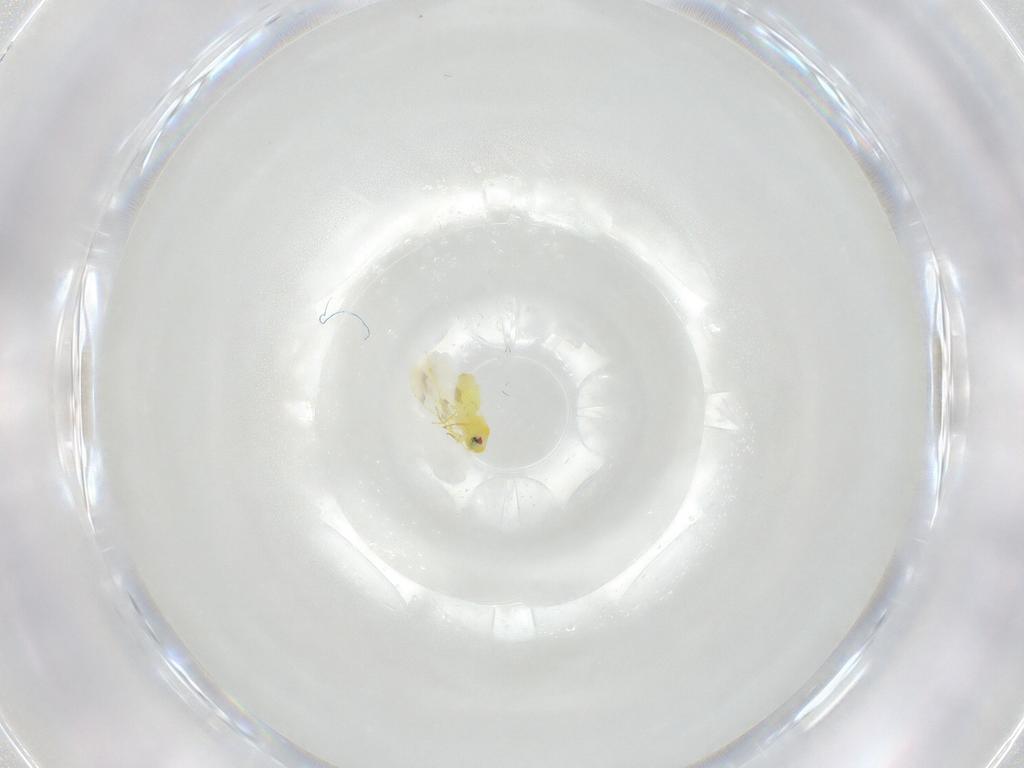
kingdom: Animalia
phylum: Arthropoda
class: Insecta
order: Hemiptera
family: Aleyrodidae
